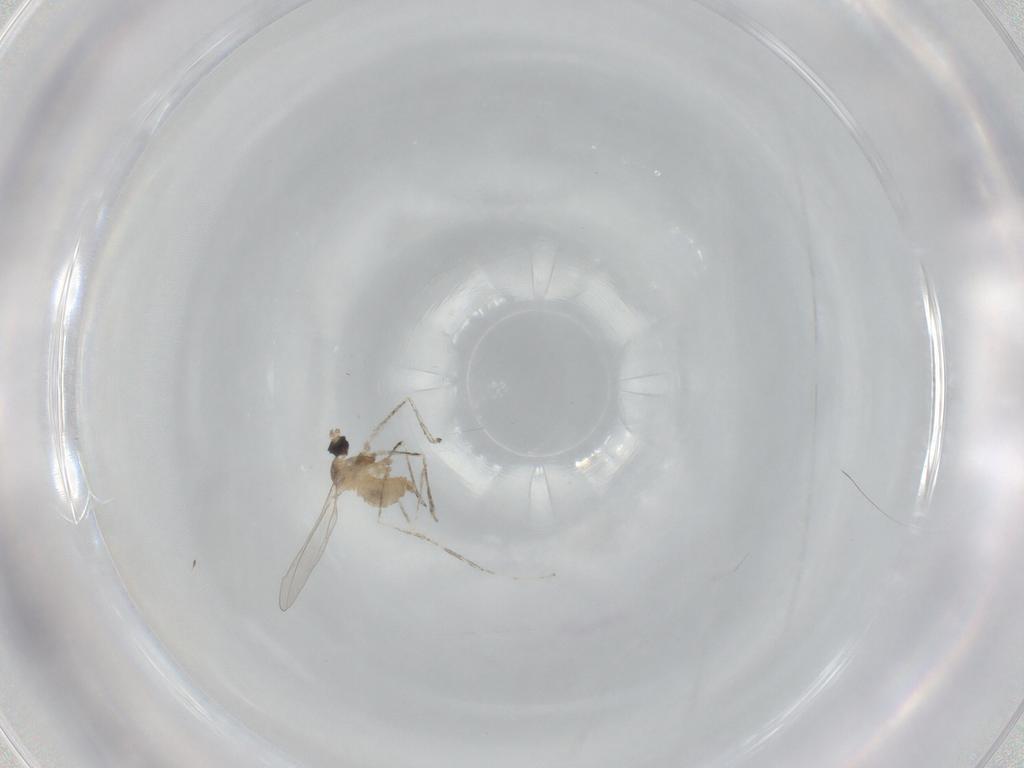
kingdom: Animalia
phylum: Arthropoda
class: Insecta
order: Diptera
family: Cecidomyiidae
